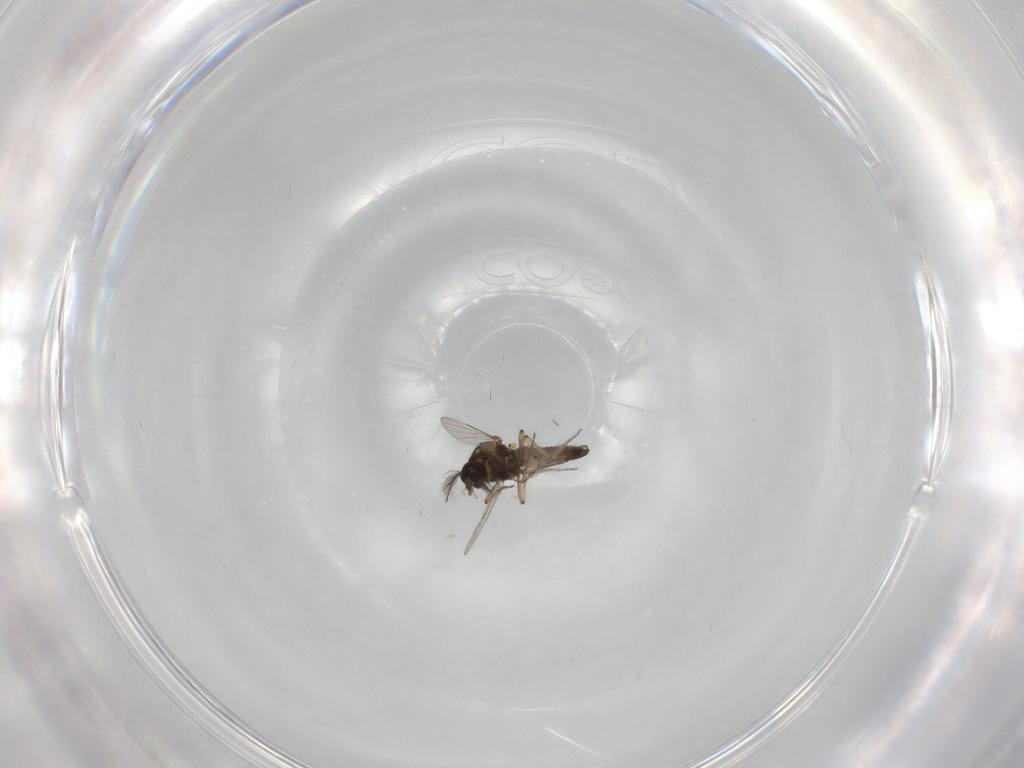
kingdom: Animalia
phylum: Arthropoda
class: Insecta
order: Diptera
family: Ceratopogonidae
